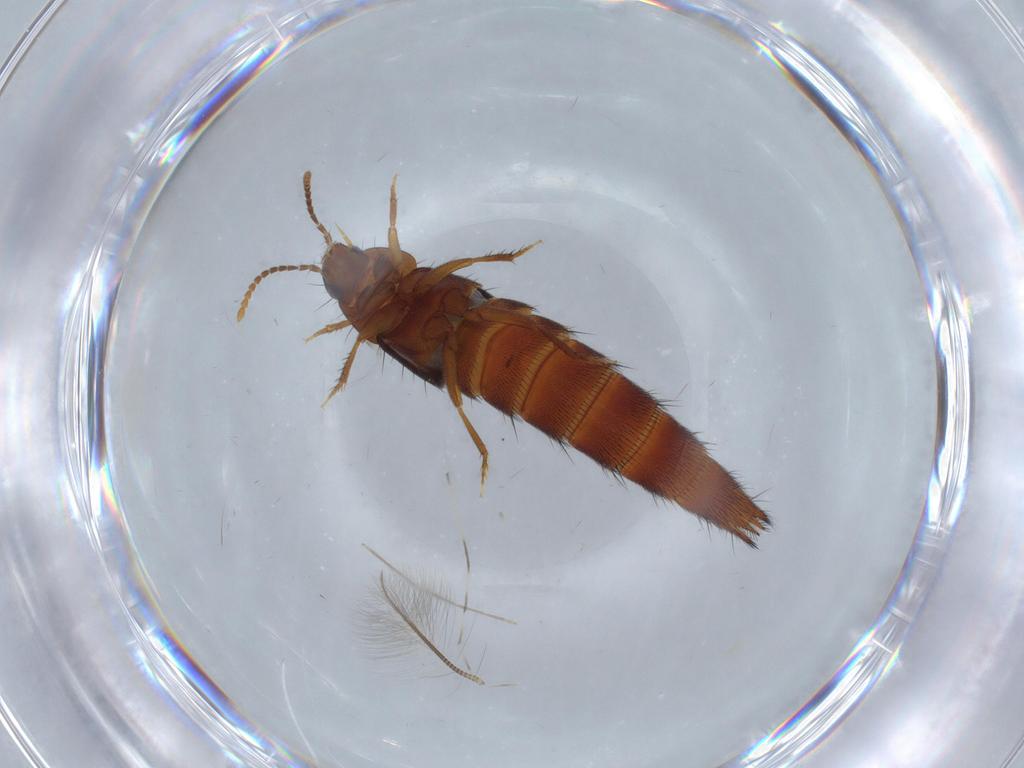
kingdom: Animalia
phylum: Arthropoda
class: Insecta
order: Coleoptera
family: Staphylinidae
